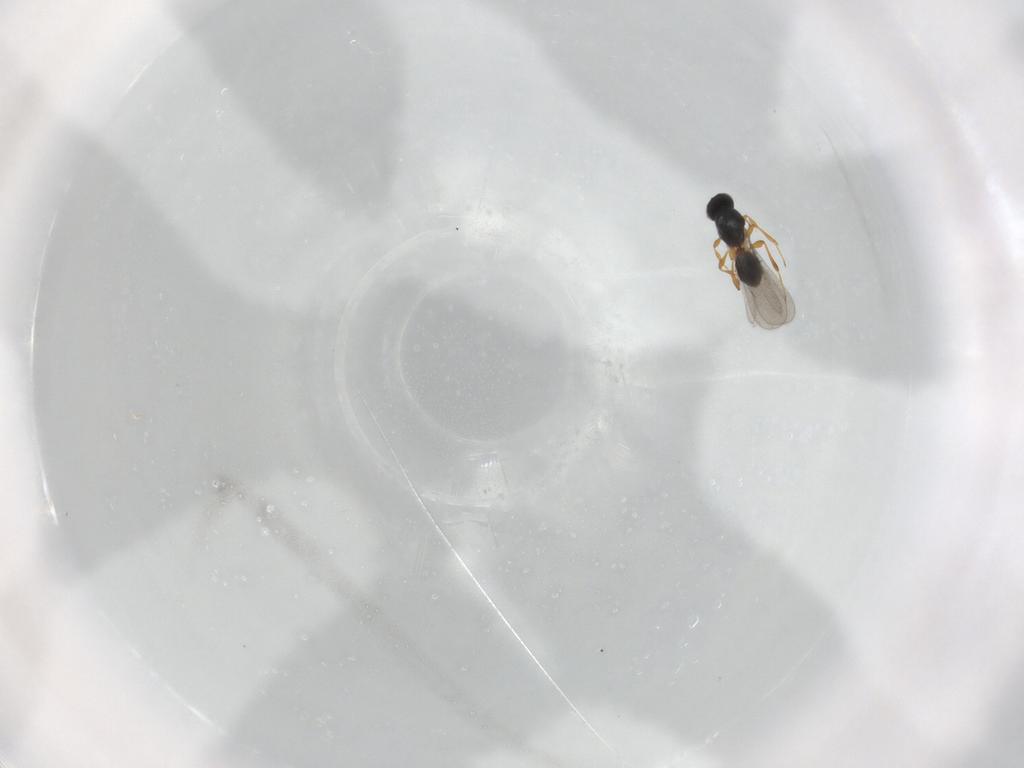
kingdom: Animalia
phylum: Arthropoda
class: Insecta
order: Hymenoptera
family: Platygastridae
